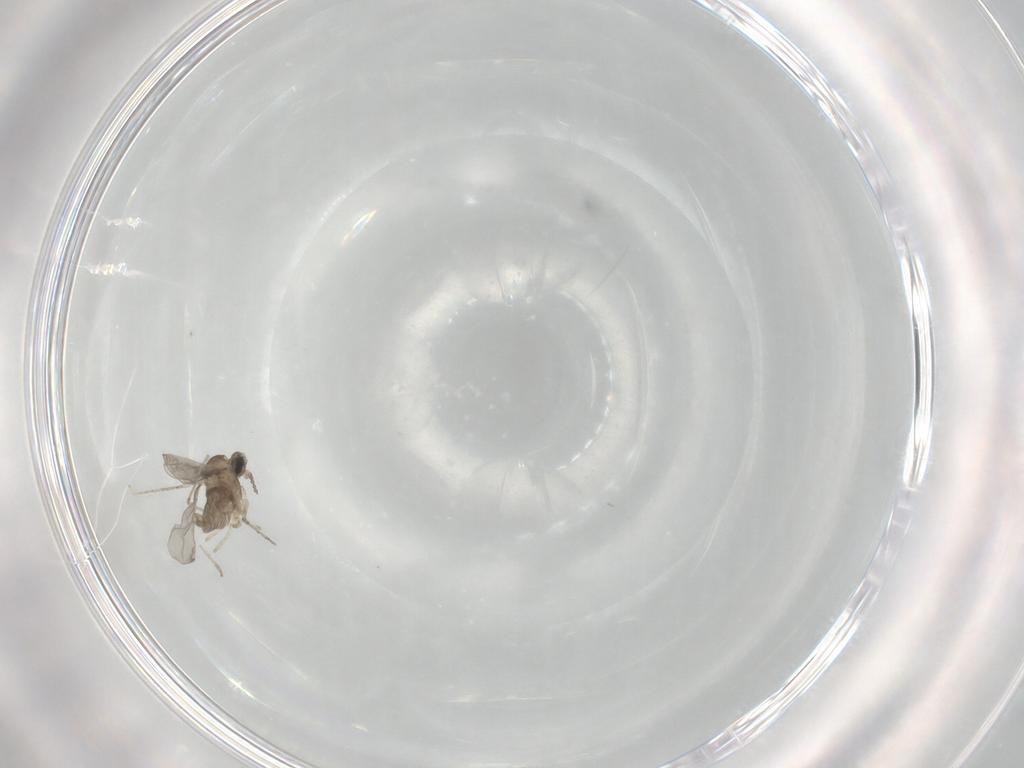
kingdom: Animalia
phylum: Arthropoda
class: Insecta
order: Diptera
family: Cecidomyiidae
